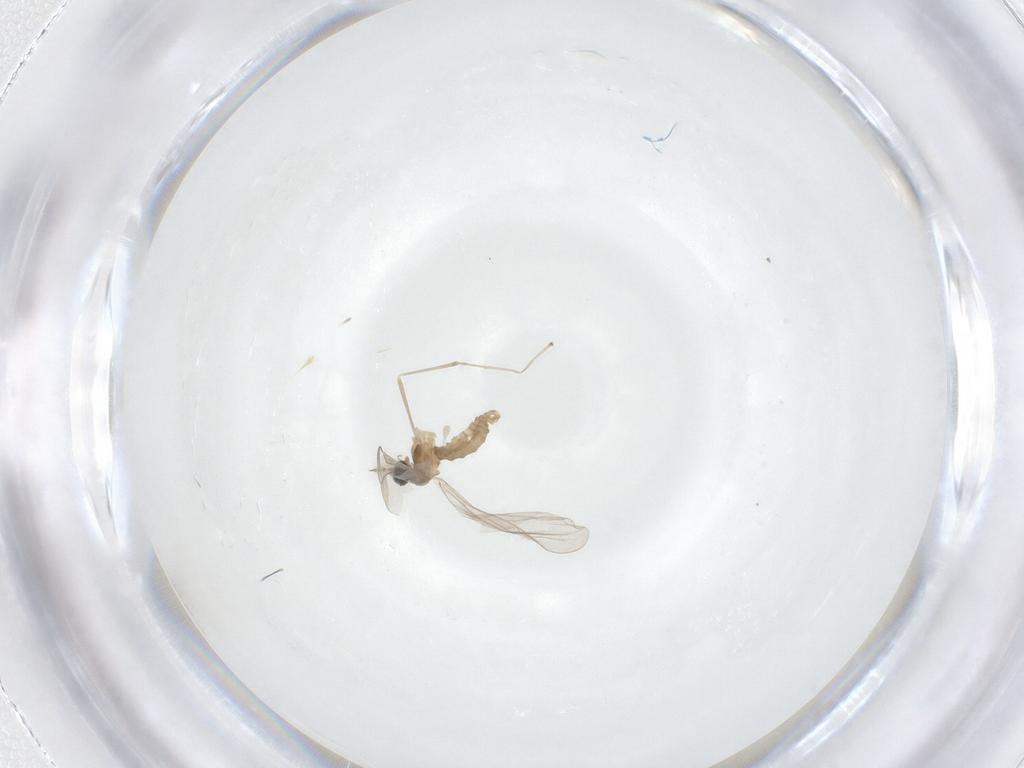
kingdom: Animalia
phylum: Arthropoda
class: Insecta
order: Diptera
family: Cecidomyiidae
